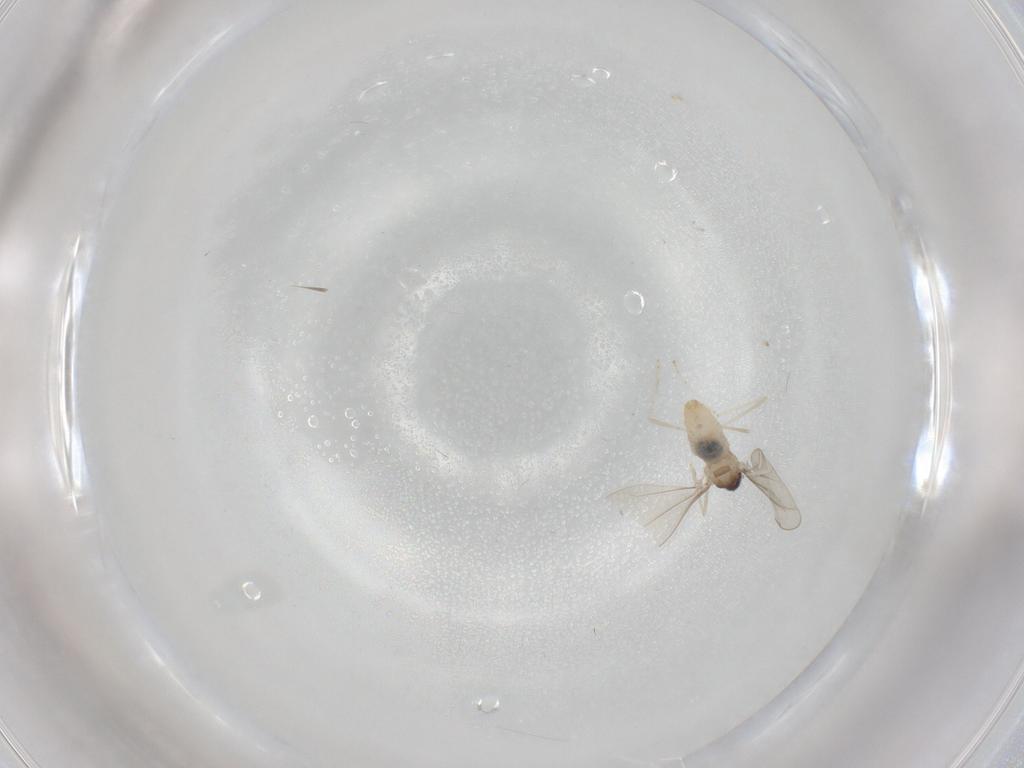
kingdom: Animalia
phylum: Arthropoda
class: Insecta
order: Diptera
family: Cecidomyiidae
